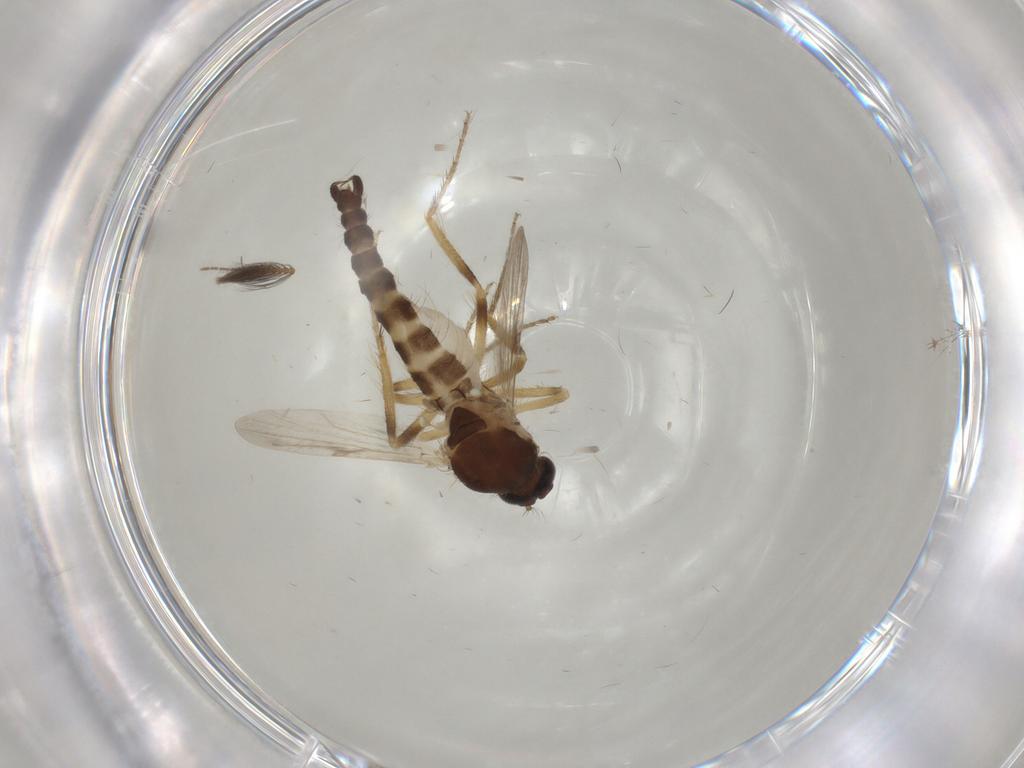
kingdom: Animalia
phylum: Arthropoda
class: Insecta
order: Diptera
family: Ceratopogonidae
